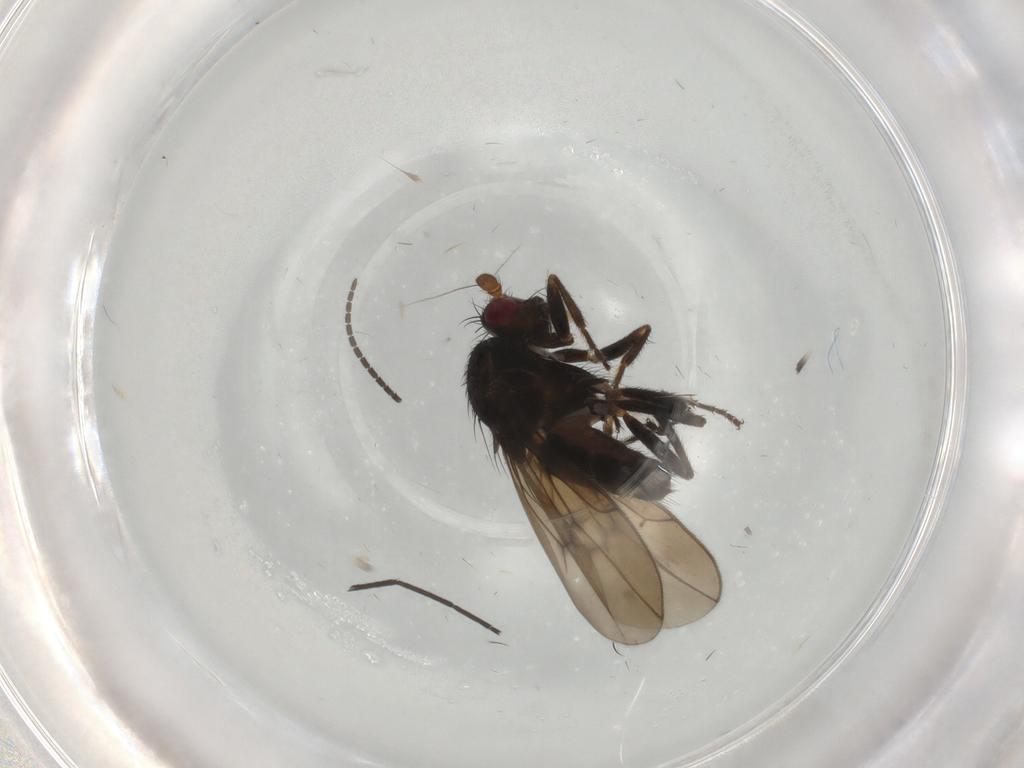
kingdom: Animalia
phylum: Arthropoda
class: Insecta
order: Diptera
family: Sphaeroceridae
